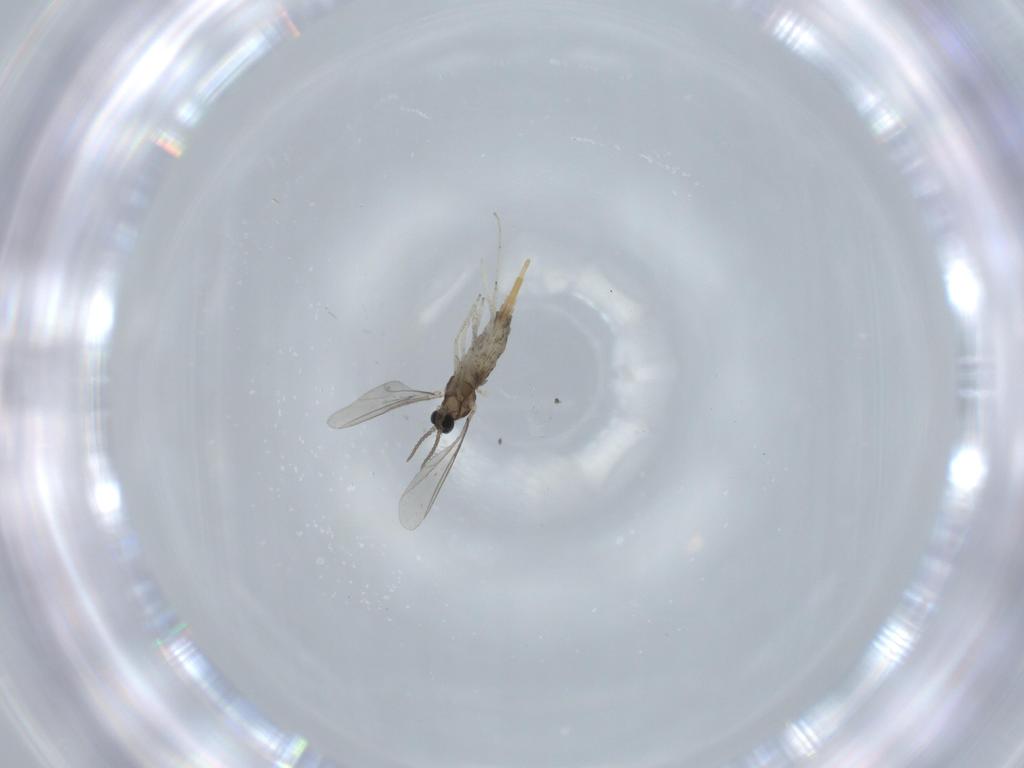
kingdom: Animalia
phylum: Arthropoda
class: Insecta
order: Diptera
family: Cecidomyiidae
